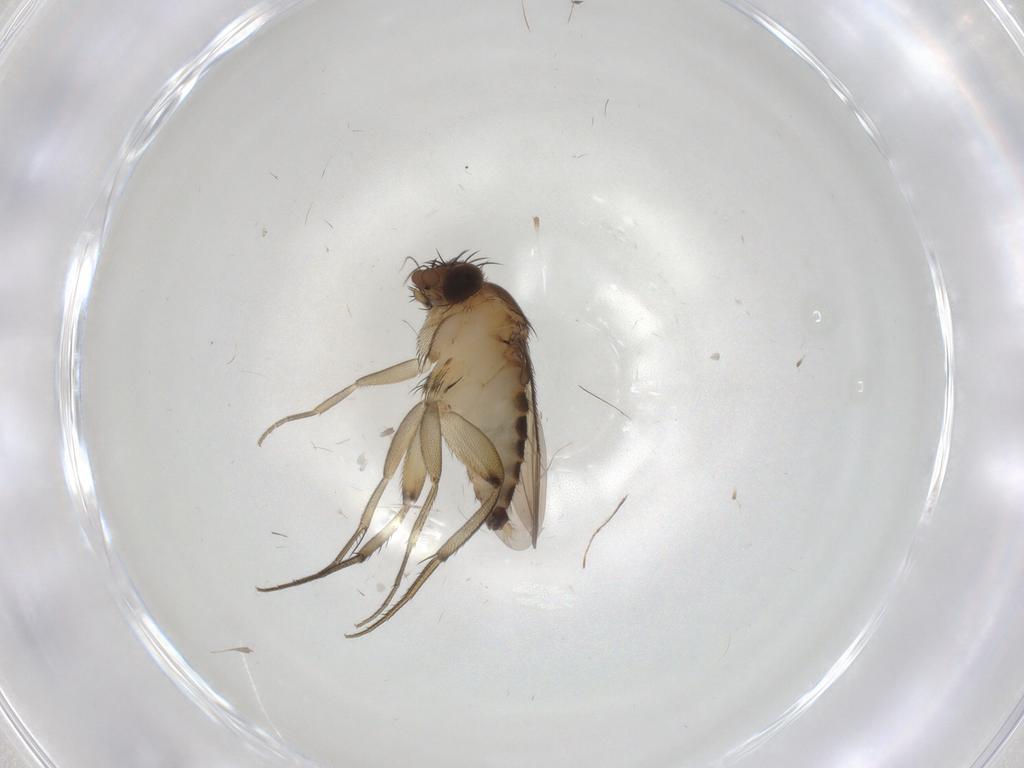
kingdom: Animalia
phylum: Arthropoda
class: Insecta
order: Diptera
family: Phoridae
